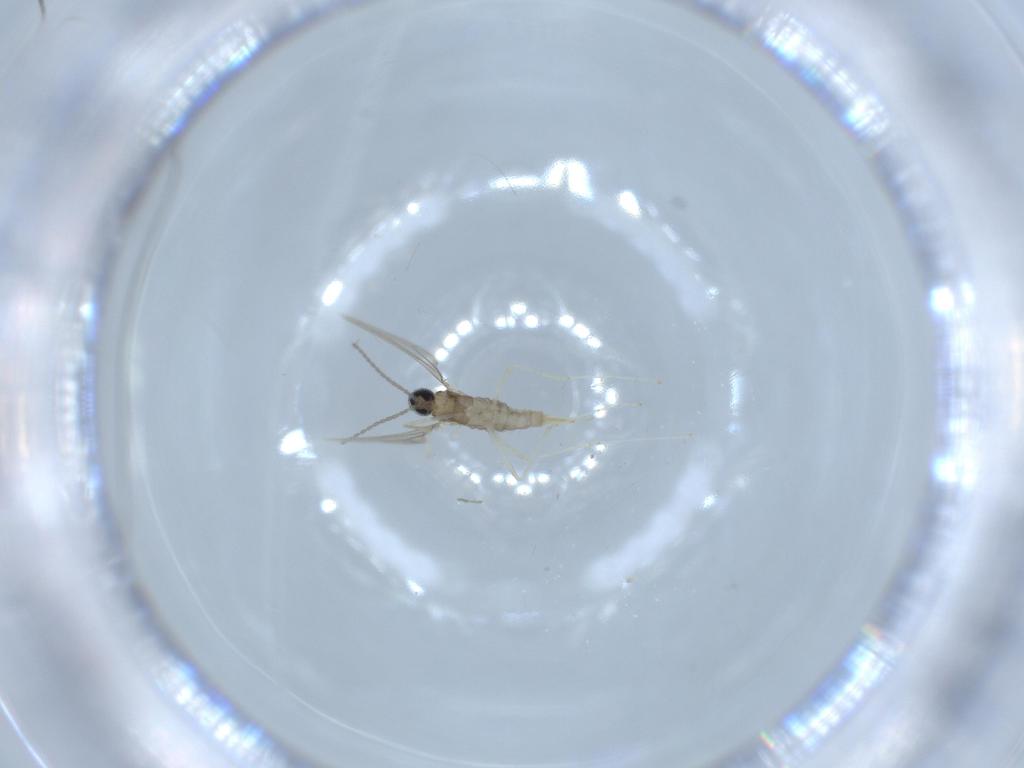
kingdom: Animalia
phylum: Arthropoda
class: Insecta
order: Diptera
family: Cecidomyiidae
